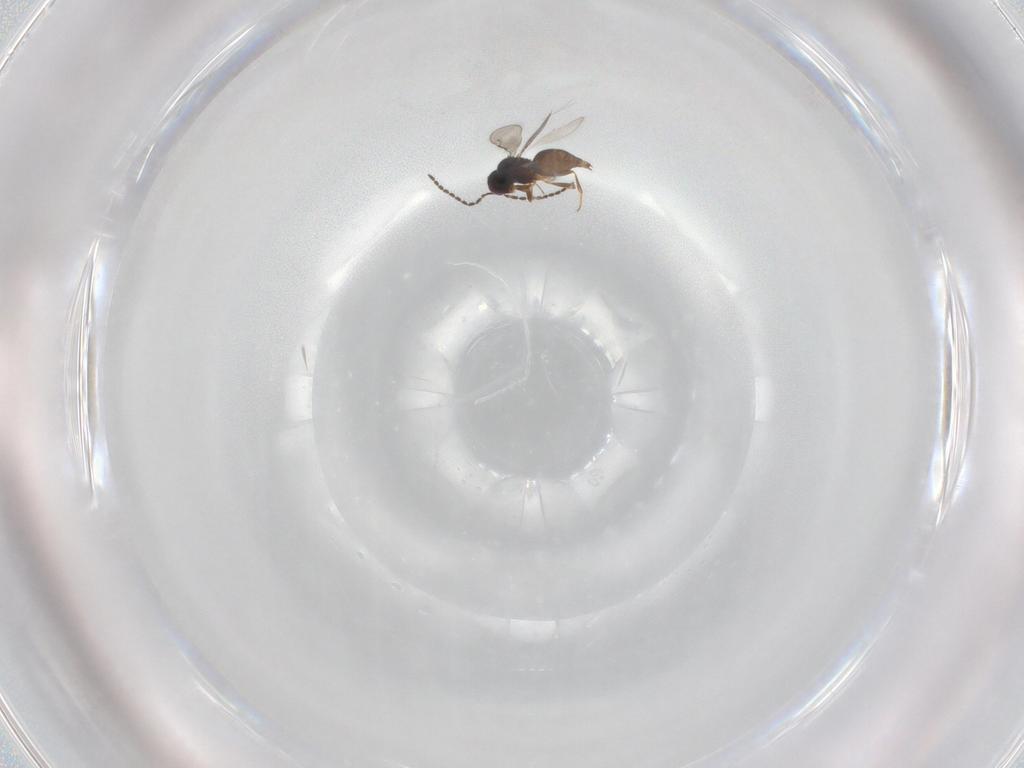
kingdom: Animalia
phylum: Arthropoda
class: Insecta
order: Hymenoptera
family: Ceraphronidae
